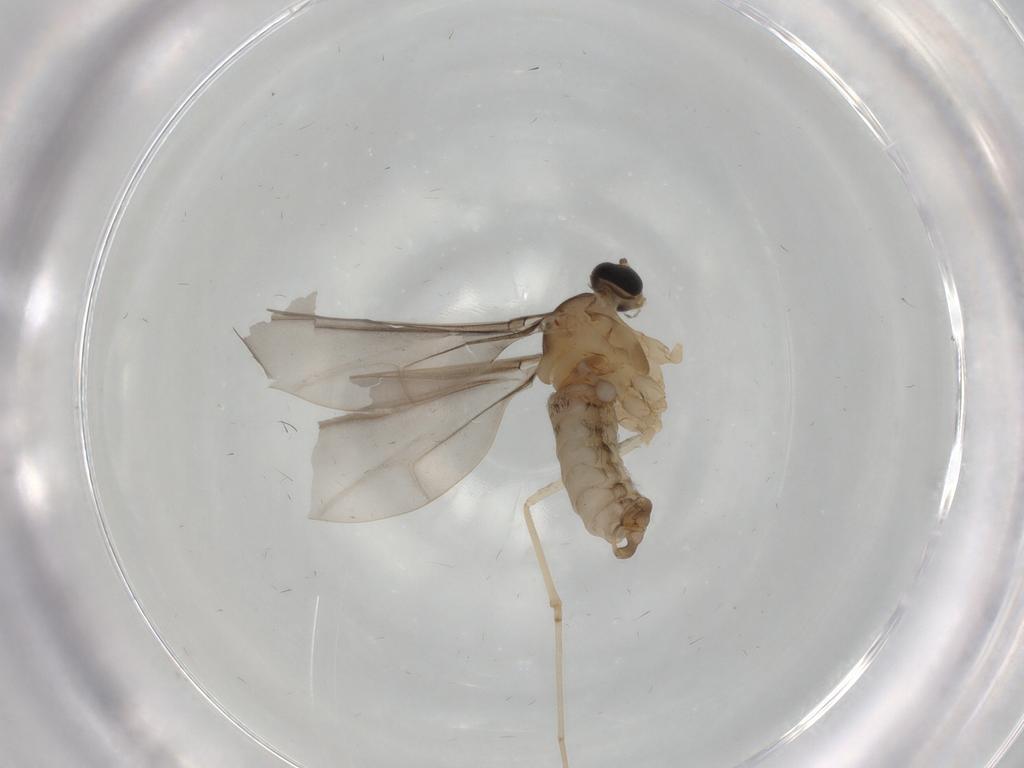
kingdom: Animalia
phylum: Arthropoda
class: Insecta
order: Diptera
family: Cecidomyiidae
